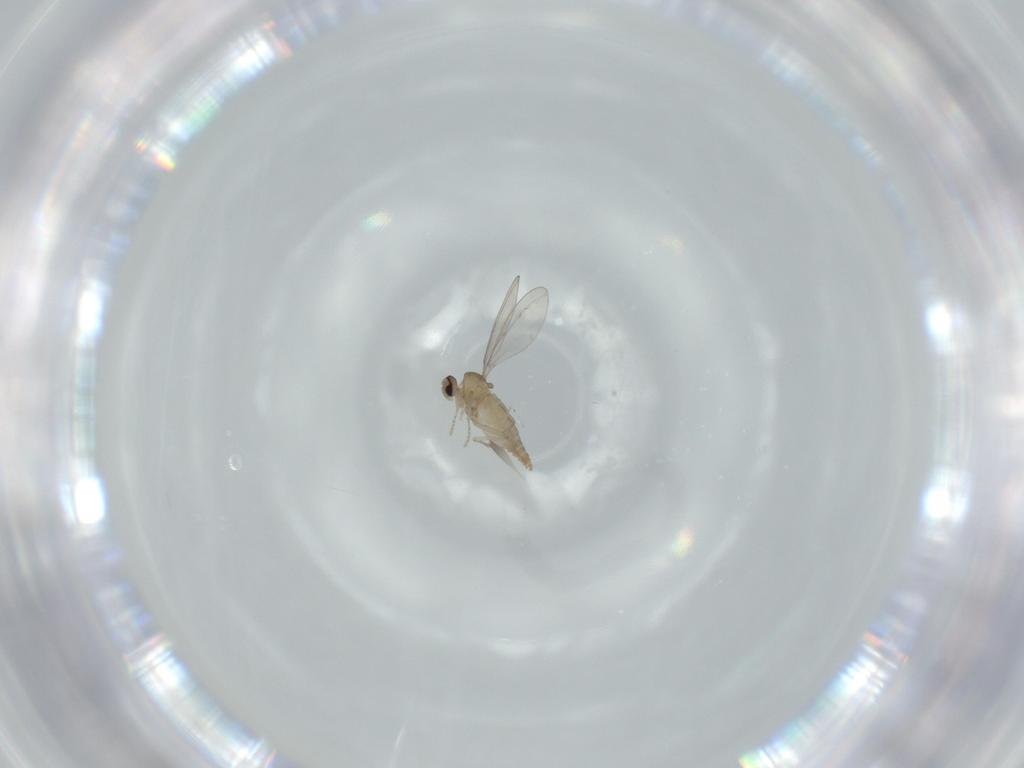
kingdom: Animalia
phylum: Arthropoda
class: Insecta
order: Diptera
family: Cecidomyiidae
